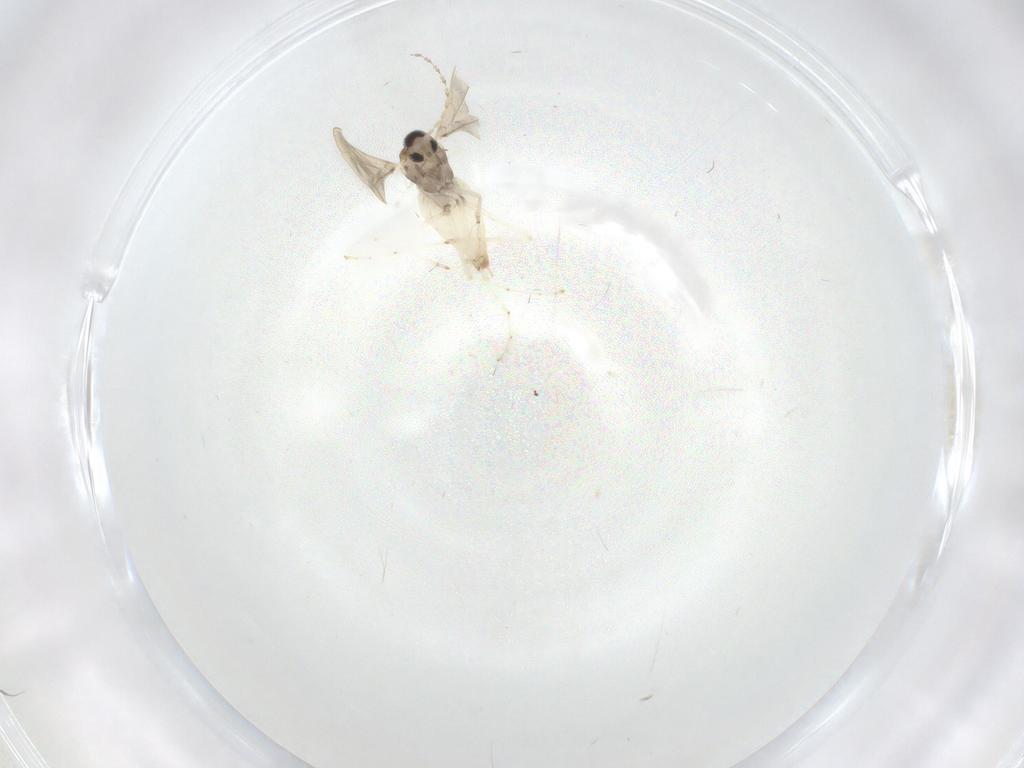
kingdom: Animalia
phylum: Arthropoda
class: Insecta
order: Diptera
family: Cecidomyiidae
